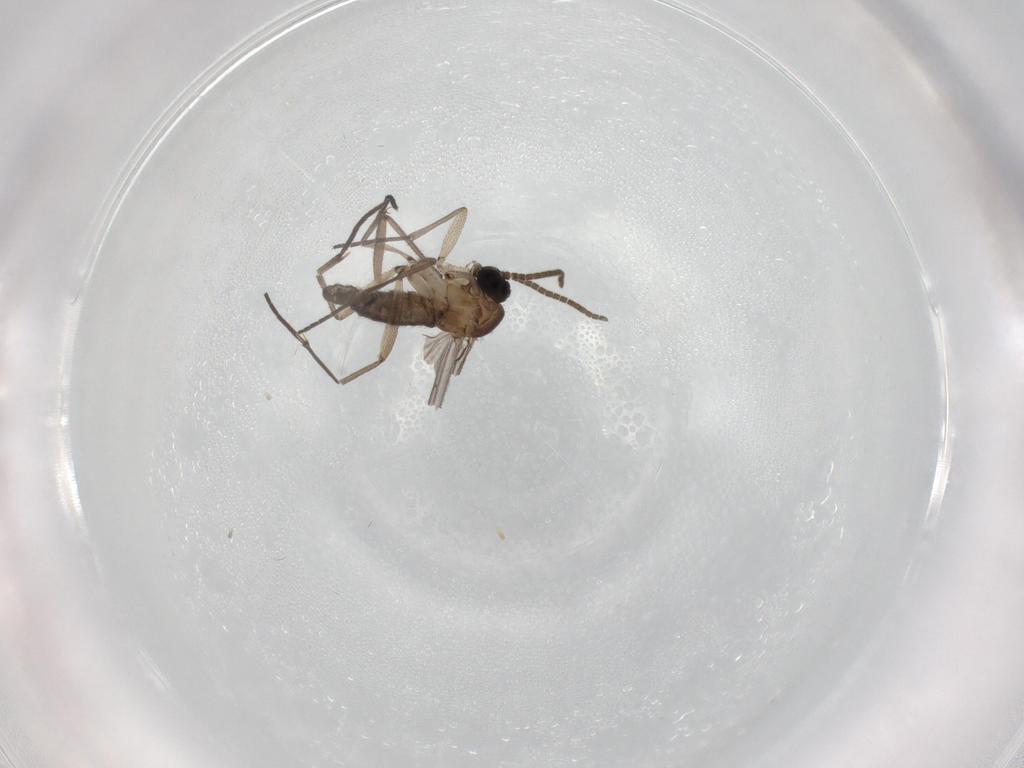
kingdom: Animalia
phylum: Arthropoda
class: Insecta
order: Diptera
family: Sciaridae
